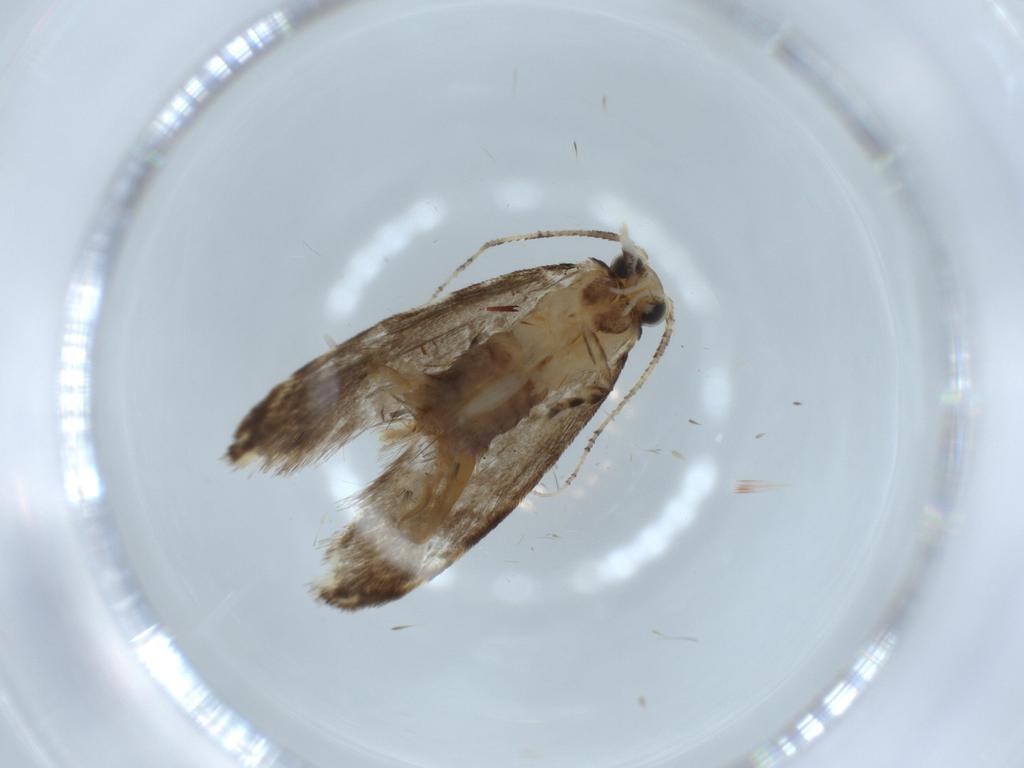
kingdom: Animalia
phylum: Arthropoda
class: Insecta
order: Lepidoptera
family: Tineidae
